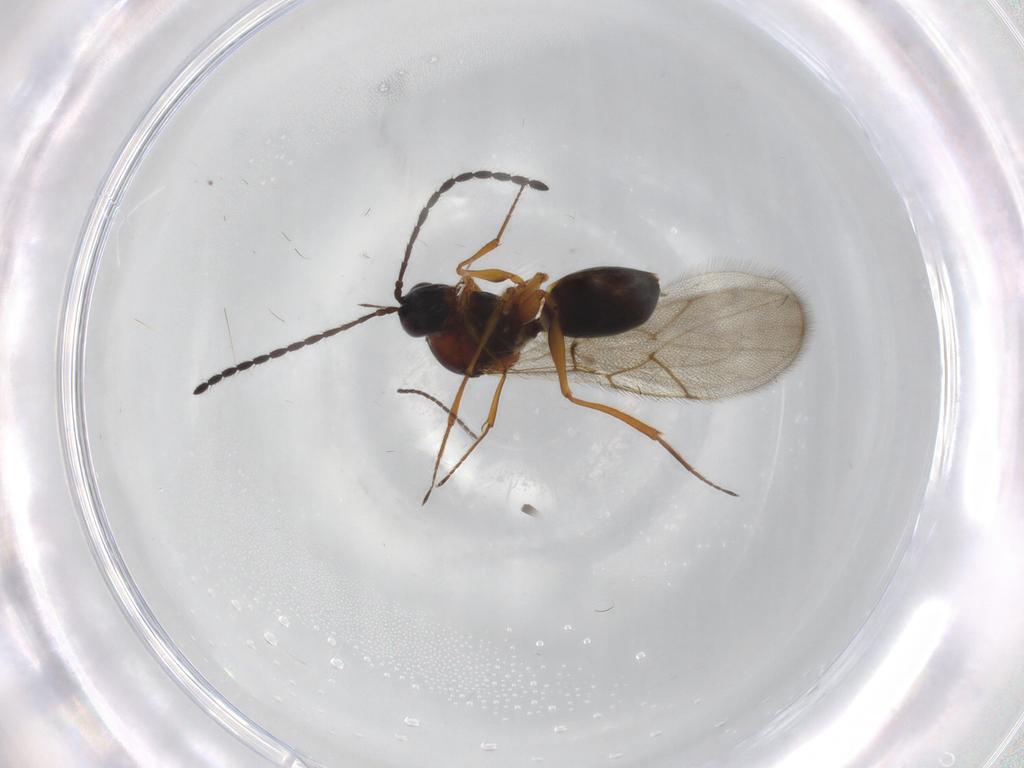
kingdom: Animalia
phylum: Arthropoda
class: Insecta
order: Hymenoptera
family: Figitidae
